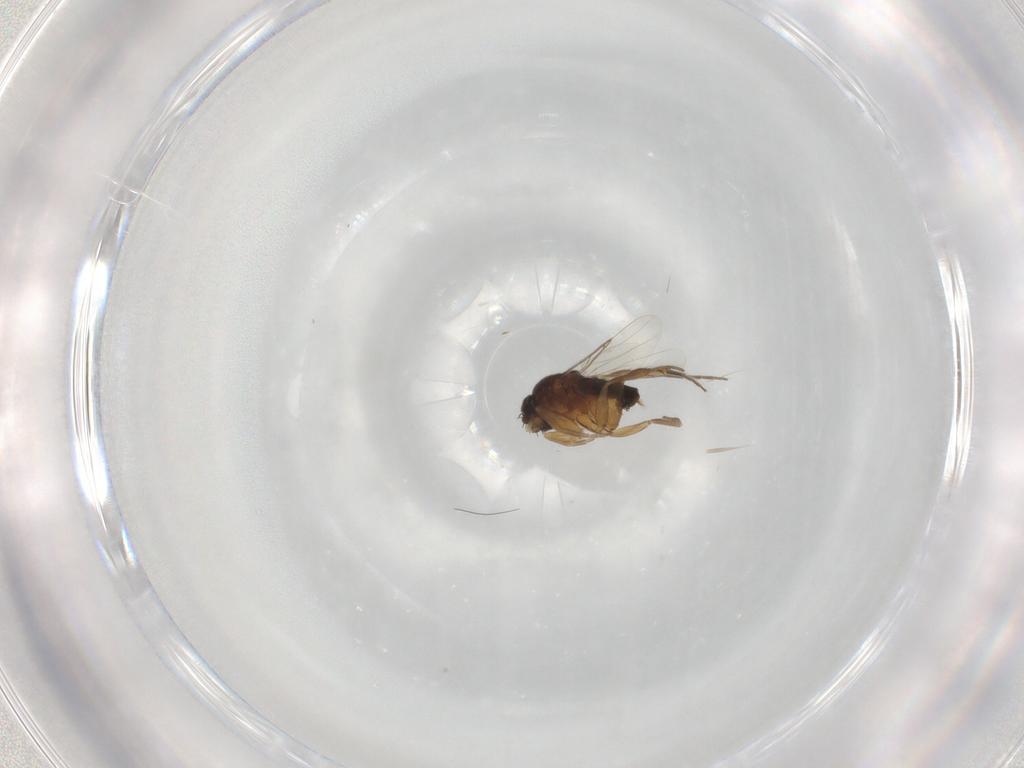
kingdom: Animalia
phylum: Arthropoda
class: Insecta
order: Diptera
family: Phoridae
